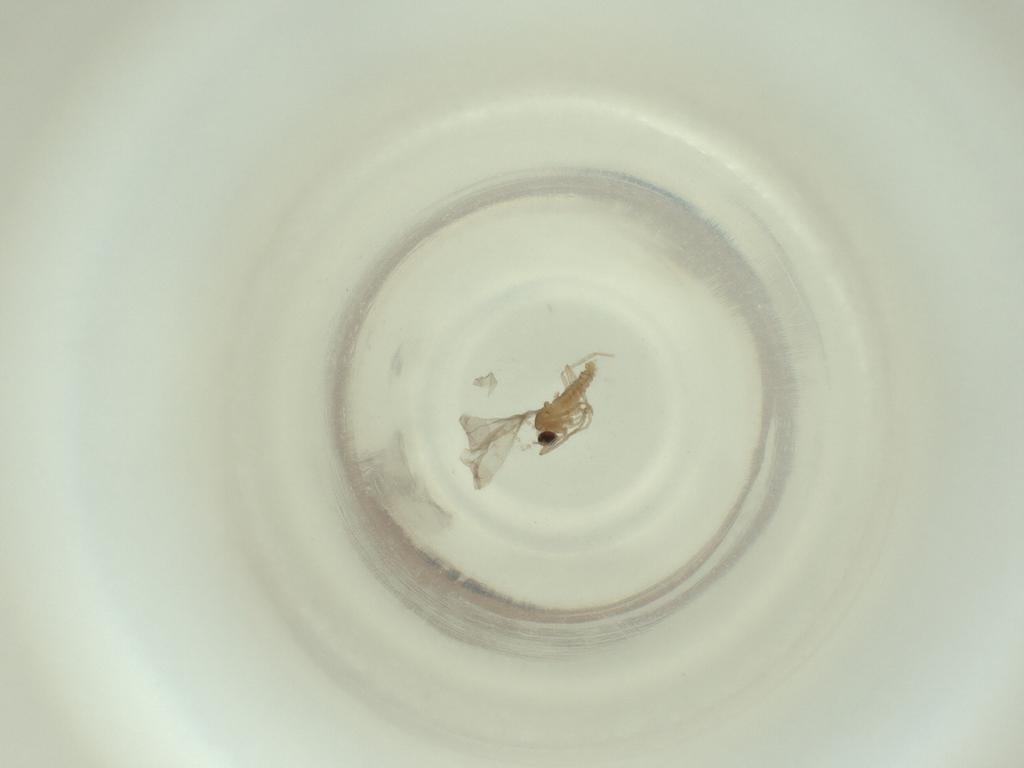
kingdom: Animalia
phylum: Arthropoda
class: Insecta
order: Diptera
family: Cecidomyiidae
